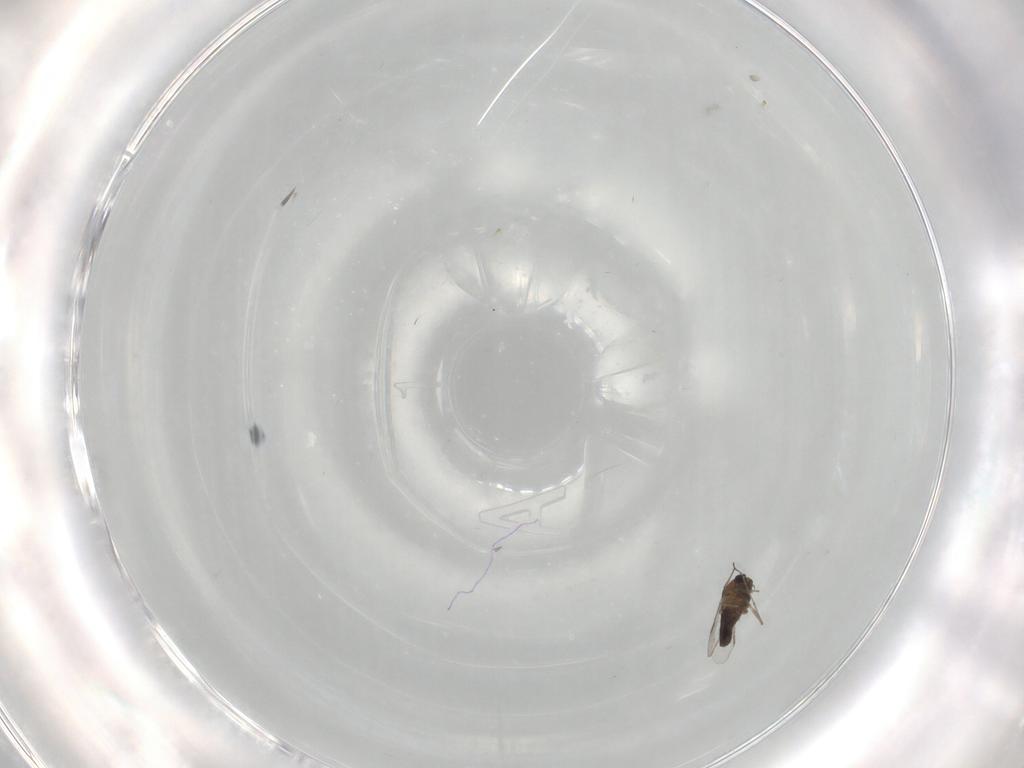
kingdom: Animalia
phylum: Arthropoda
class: Insecta
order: Diptera
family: Chironomidae
